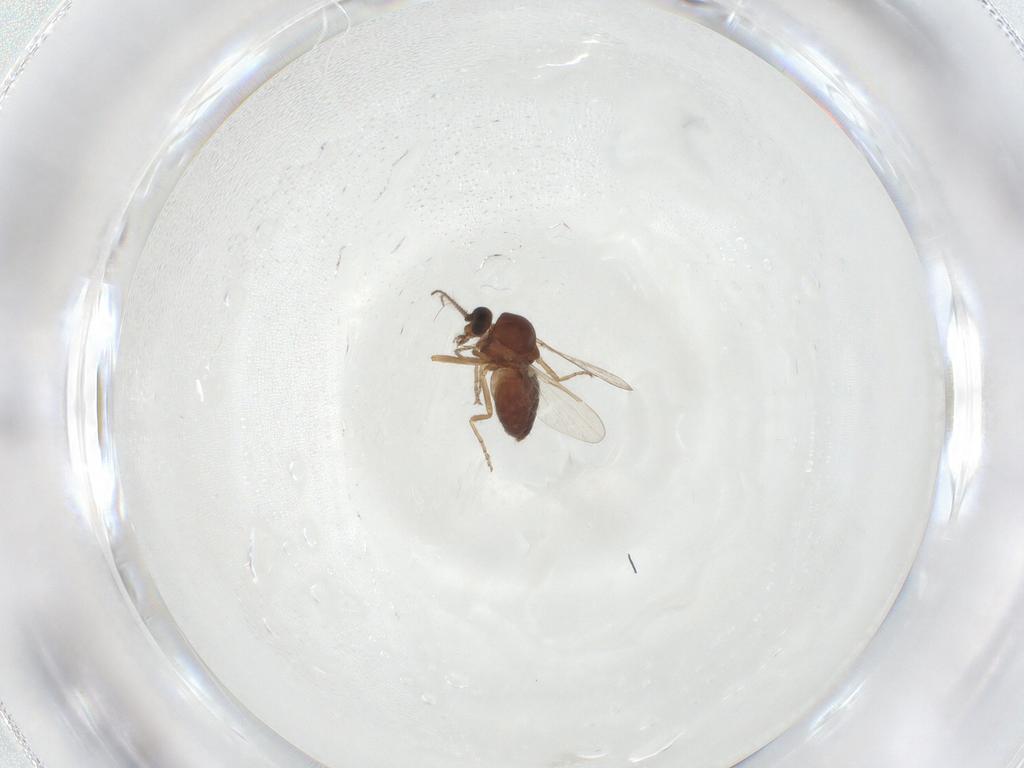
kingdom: Animalia
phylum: Arthropoda
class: Insecta
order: Diptera
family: Ceratopogonidae
